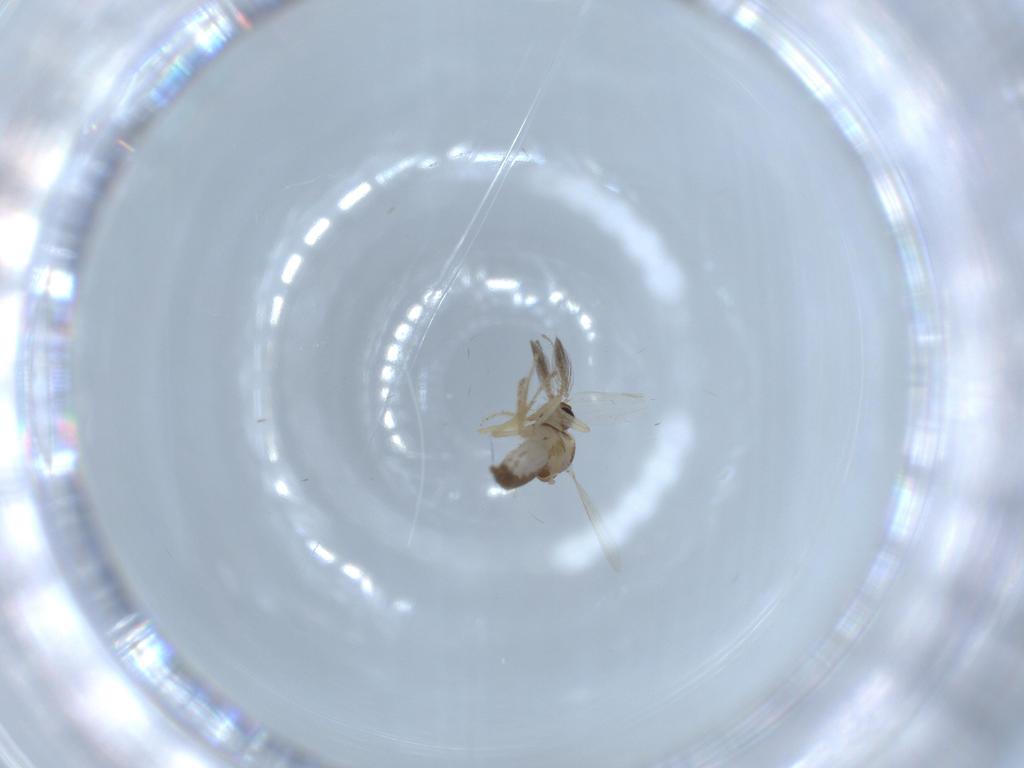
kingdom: Animalia
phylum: Arthropoda
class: Insecta
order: Diptera
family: Ceratopogonidae
